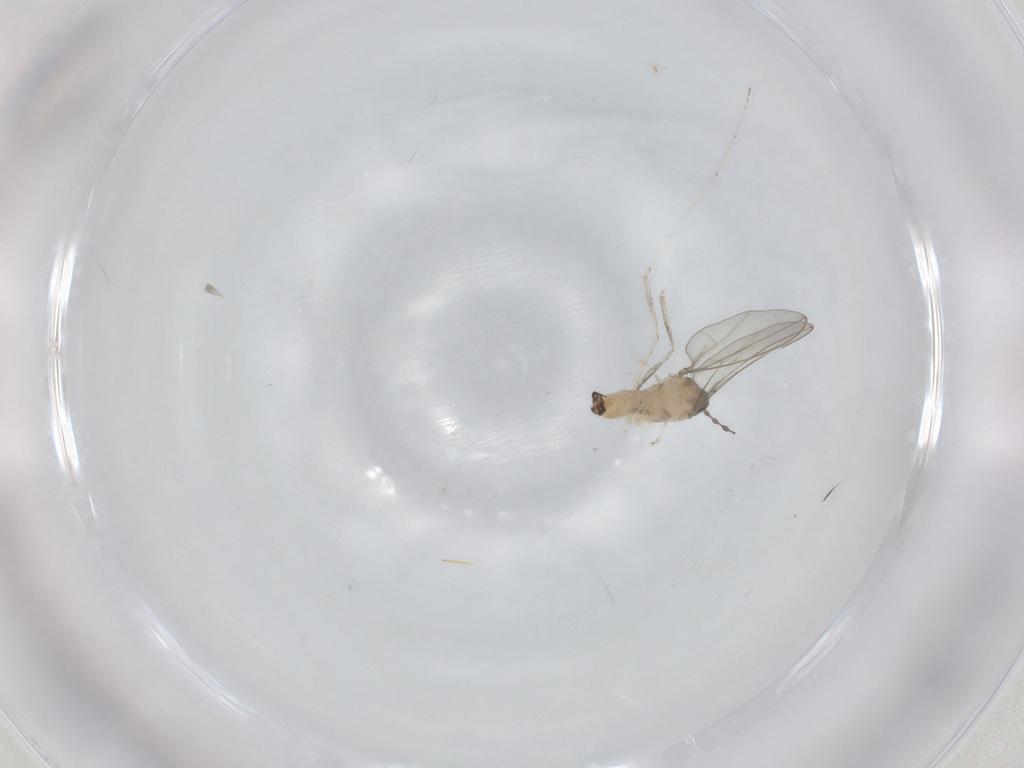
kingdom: Animalia
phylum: Arthropoda
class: Insecta
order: Diptera
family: Cecidomyiidae
